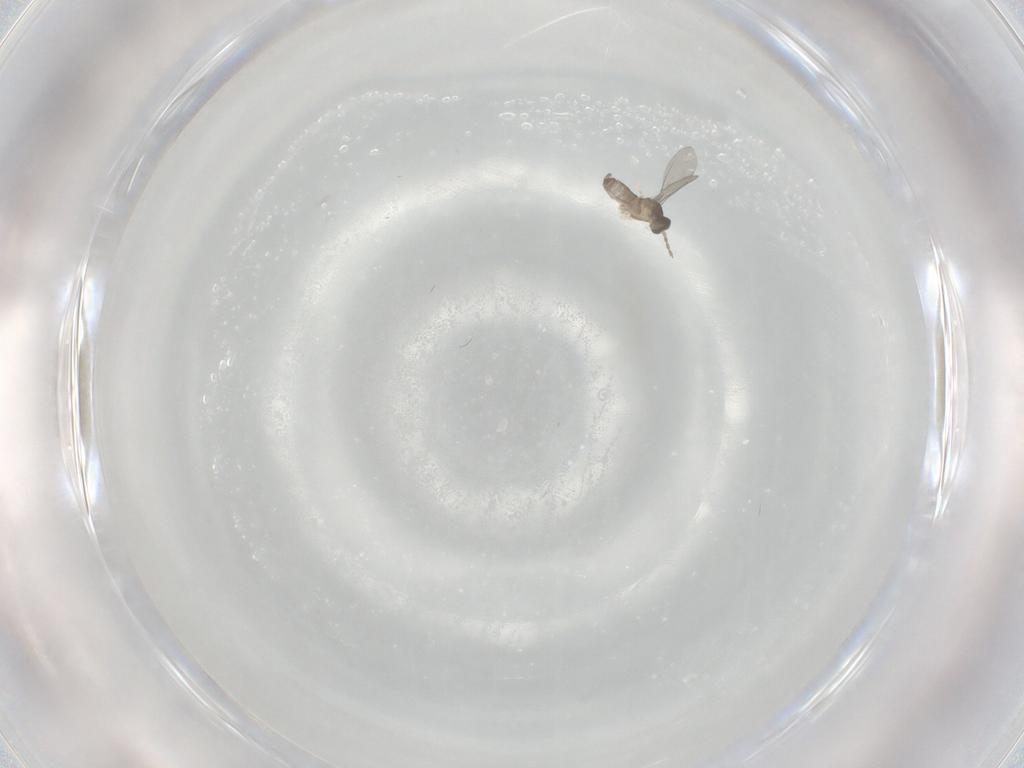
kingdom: Animalia
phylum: Arthropoda
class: Insecta
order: Diptera
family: Cecidomyiidae
